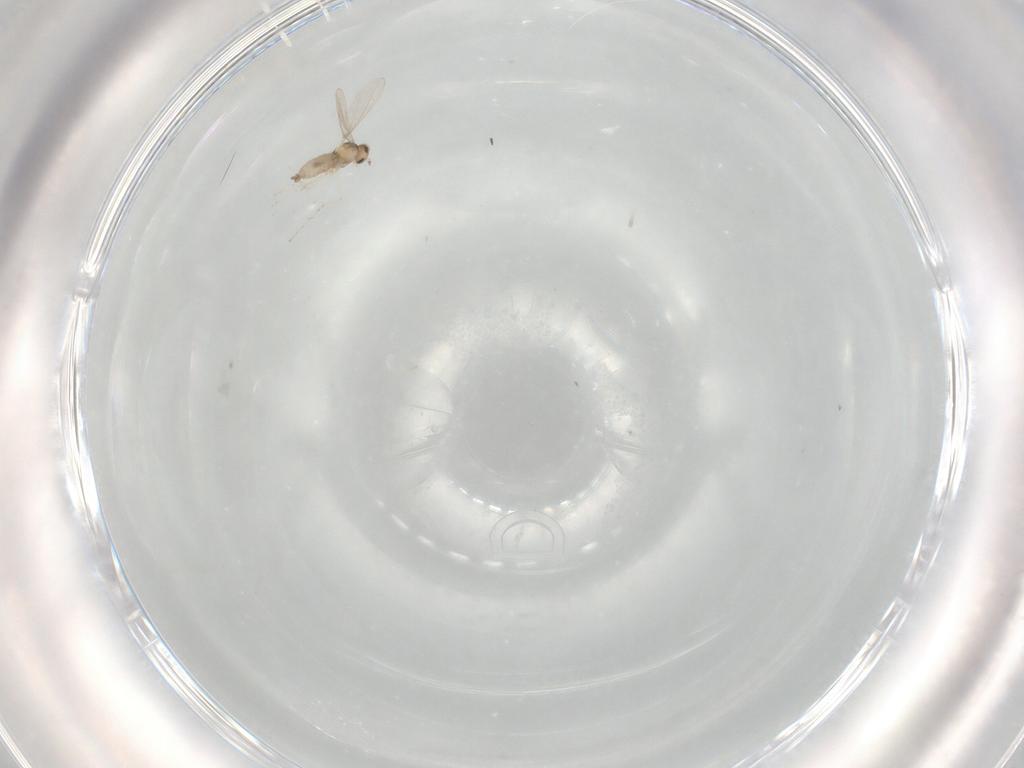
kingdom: Animalia
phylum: Arthropoda
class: Insecta
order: Diptera
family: Cecidomyiidae
